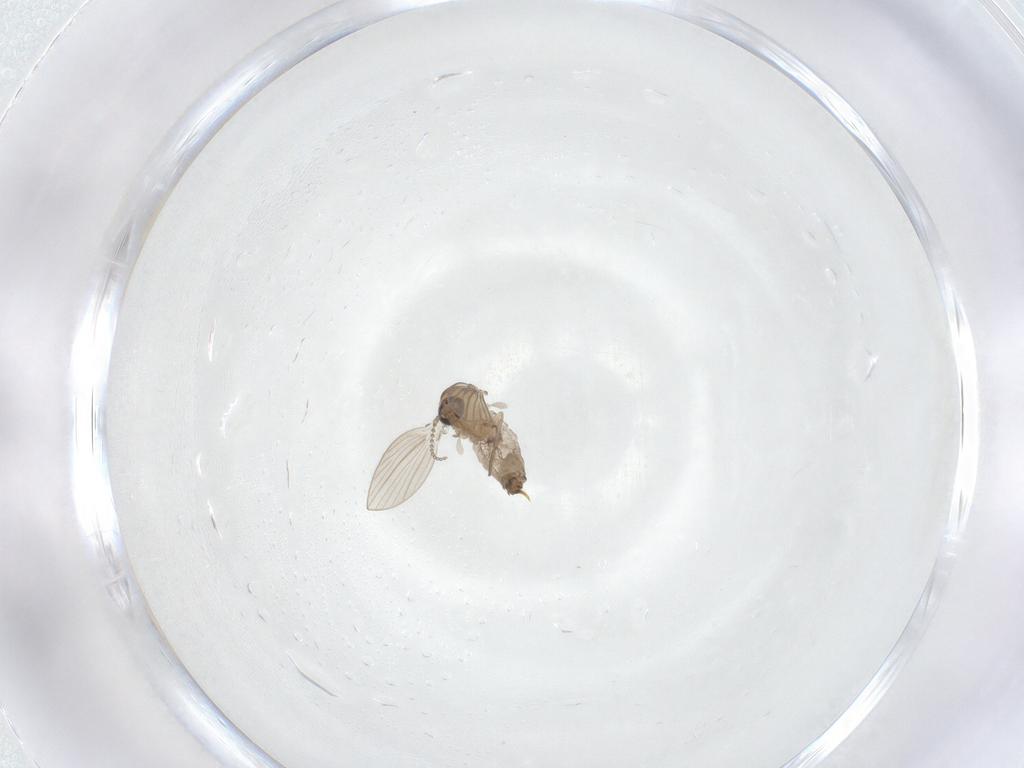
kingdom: Animalia
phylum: Arthropoda
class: Insecta
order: Diptera
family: Psychodidae
